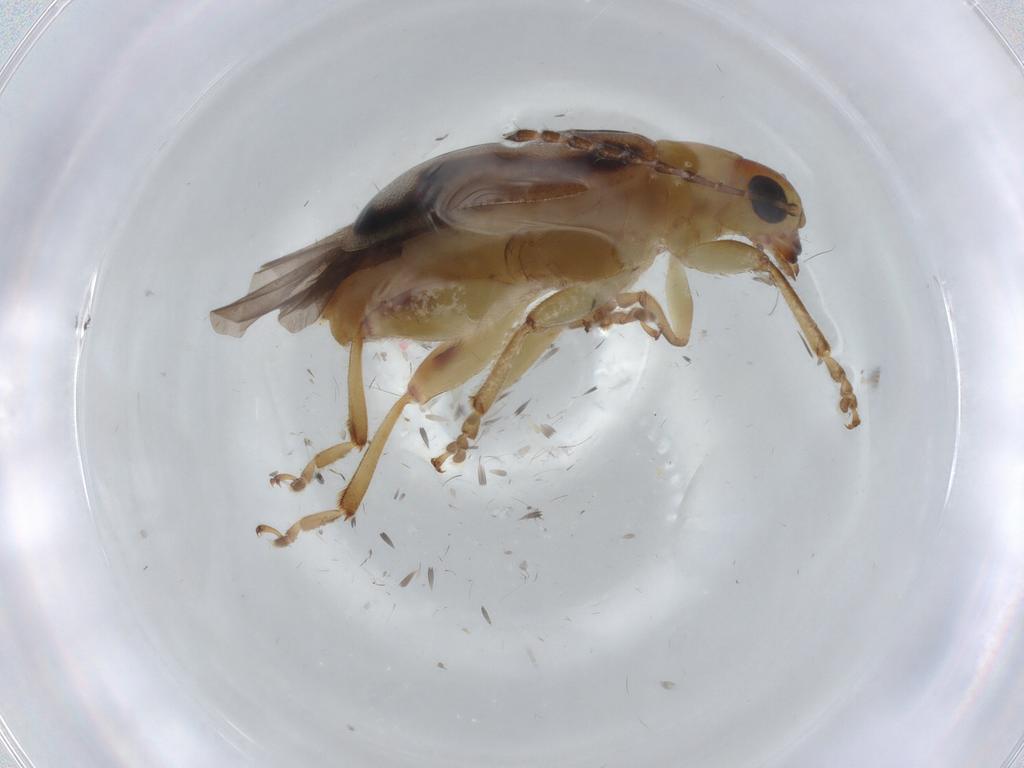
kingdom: Animalia
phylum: Arthropoda
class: Insecta
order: Coleoptera
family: Chrysomelidae
